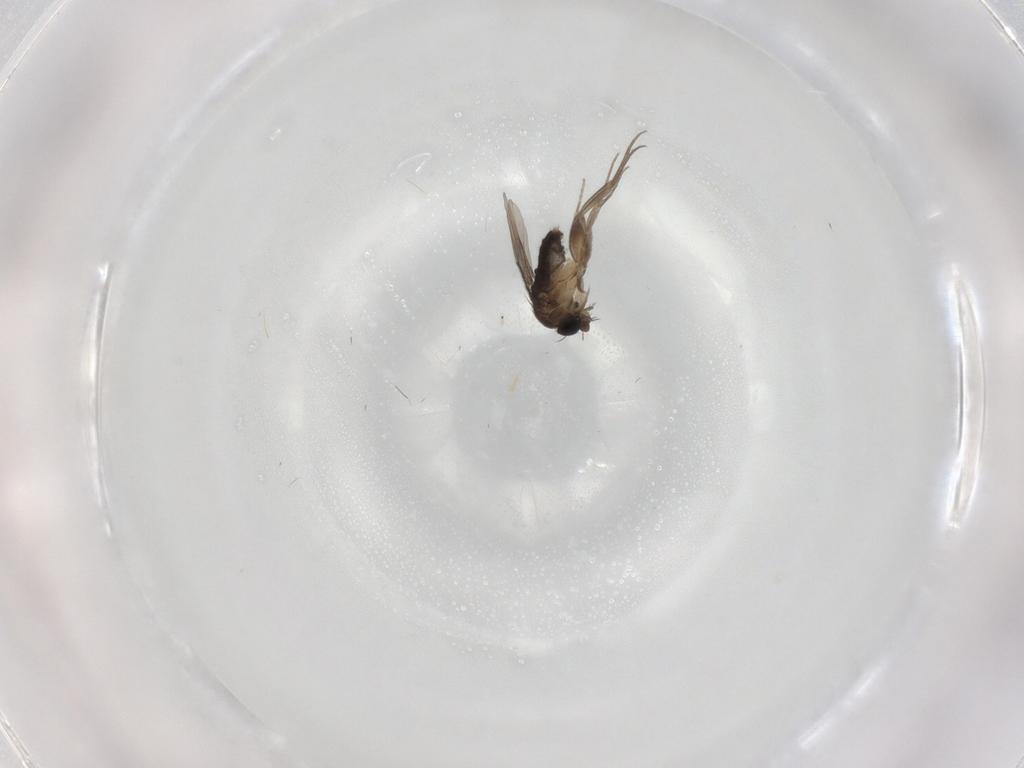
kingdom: Animalia
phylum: Arthropoda
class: Insecta
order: Diptera
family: Phoridae
